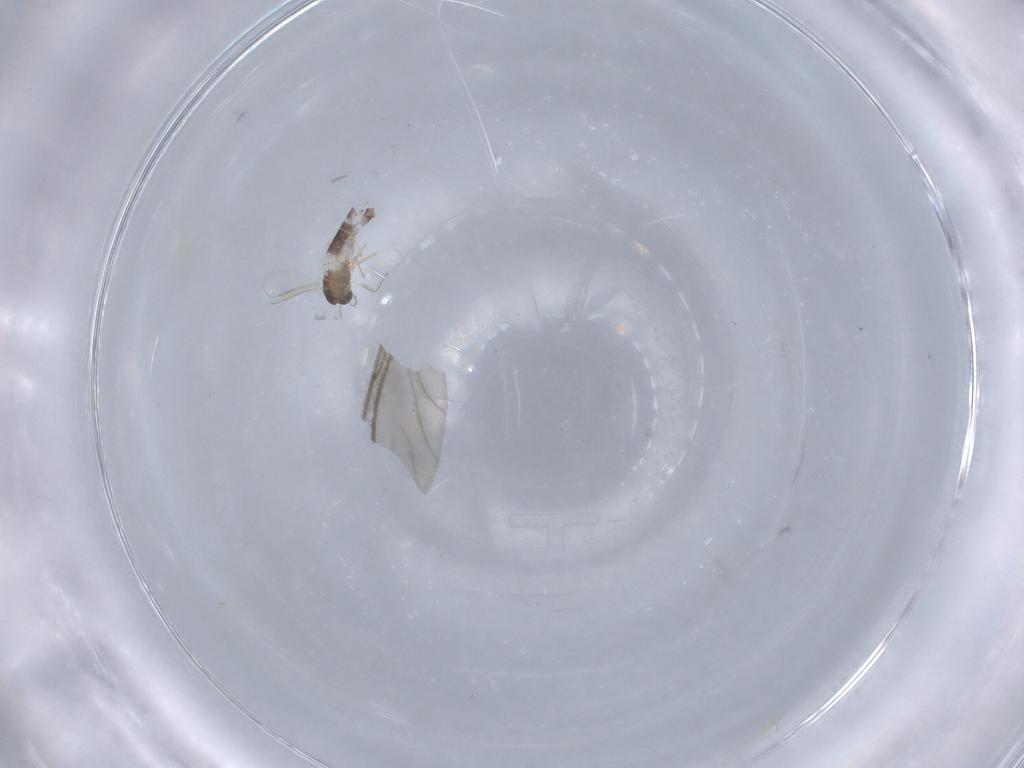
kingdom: Animalia
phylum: Arthropoda
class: Insecta
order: Diptera
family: Chironomidae
